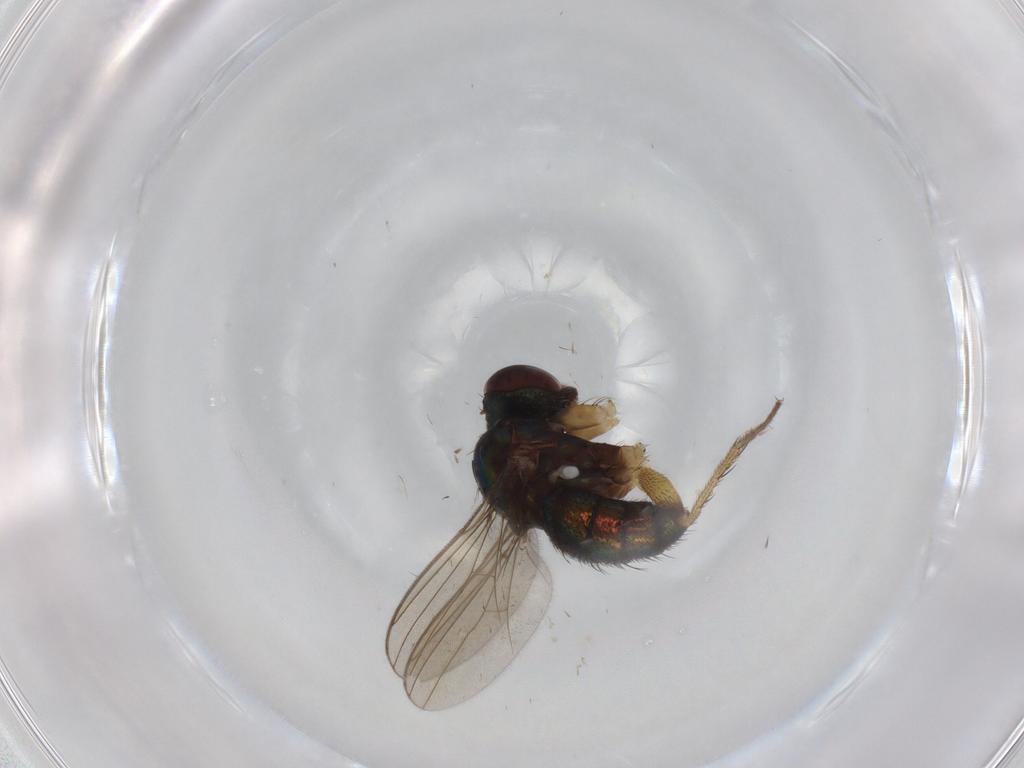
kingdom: Animalia
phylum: Arthropoda
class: Insecta
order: Diptera
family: Dolichopodidae
